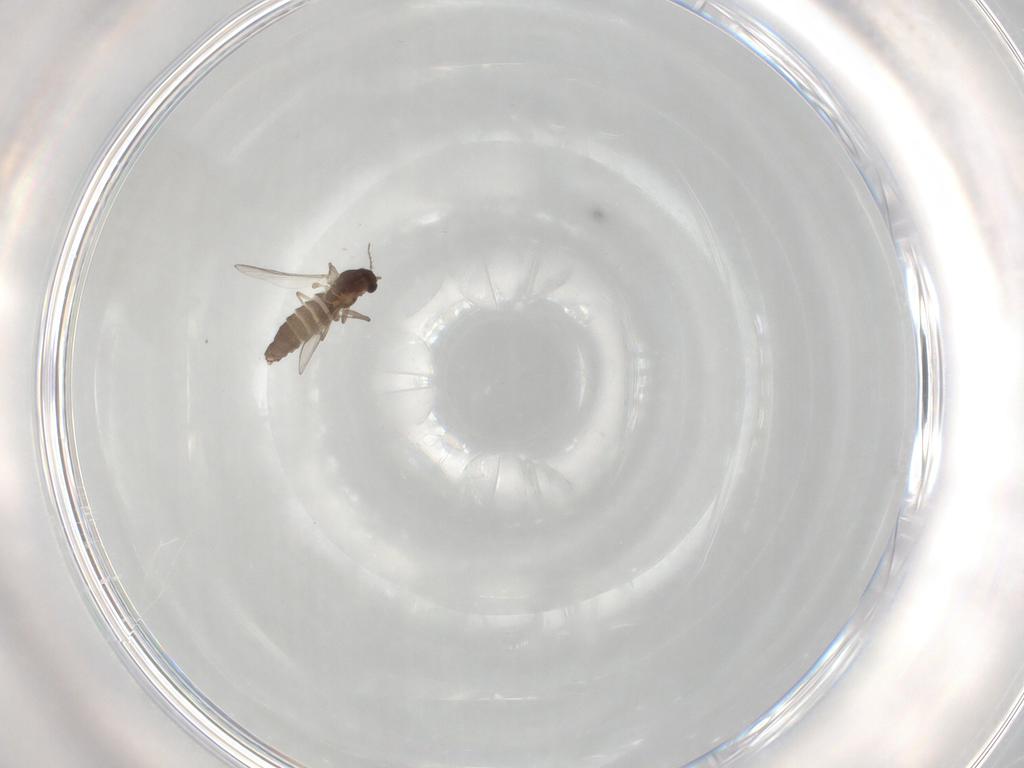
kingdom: Animalia
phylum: Arthropoda
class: Insecta
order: Diptera
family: Chironomidae
